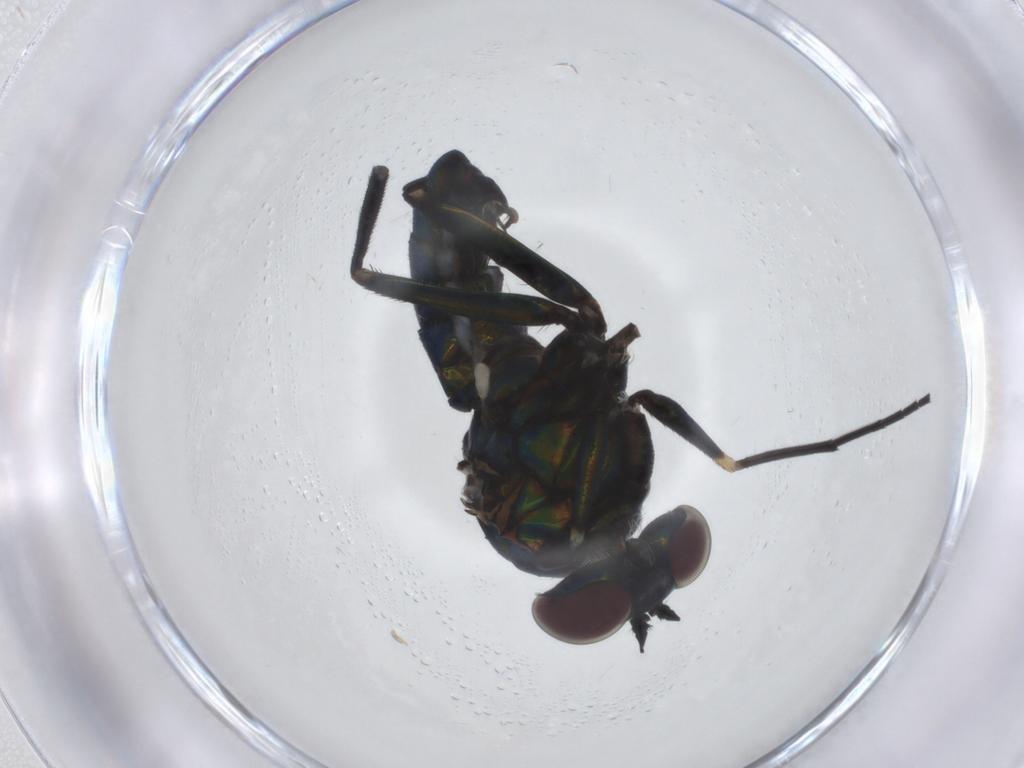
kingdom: Animalia
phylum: Arthropoda
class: Insecta
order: Diptera
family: Dolichopodidae
